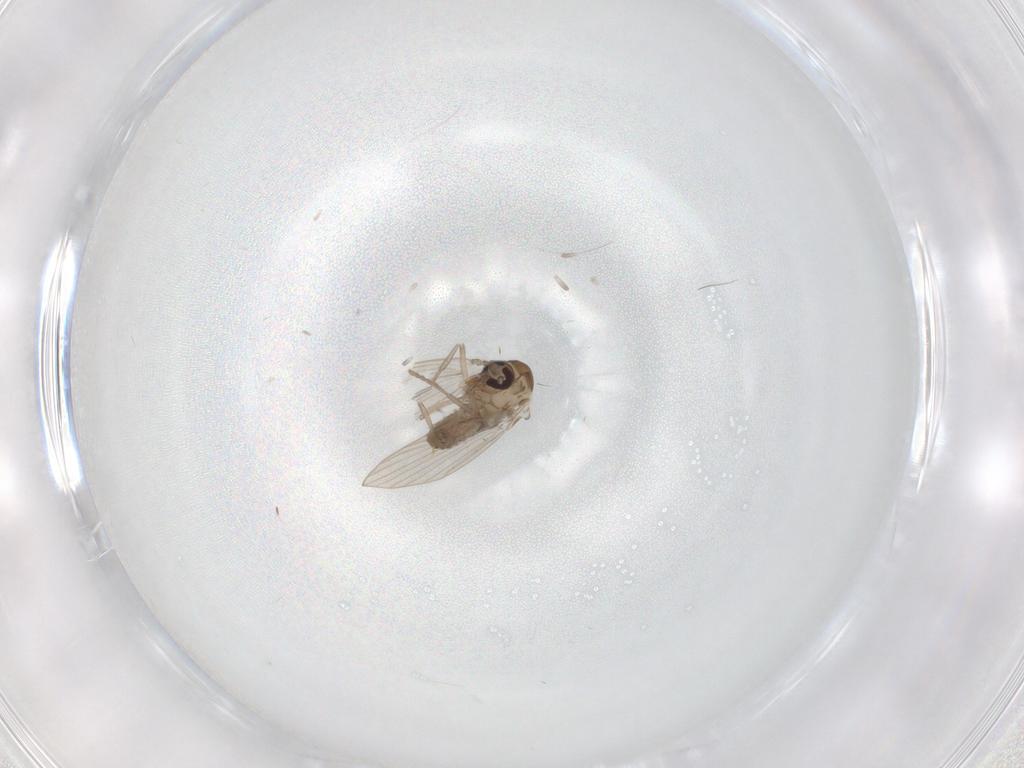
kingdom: Animalia
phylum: Arthropoda
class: Insecta
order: Diptera
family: Psychodidae
